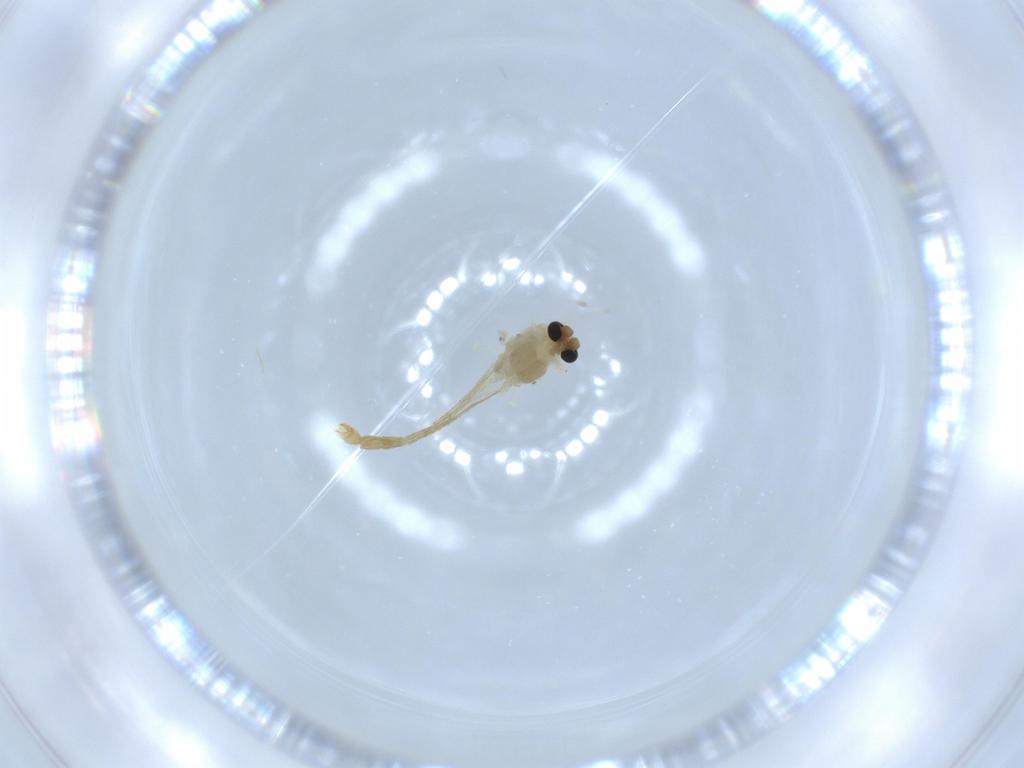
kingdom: Animalia
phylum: Arthropoda
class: Insecta
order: Diptera
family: Chironomidae
